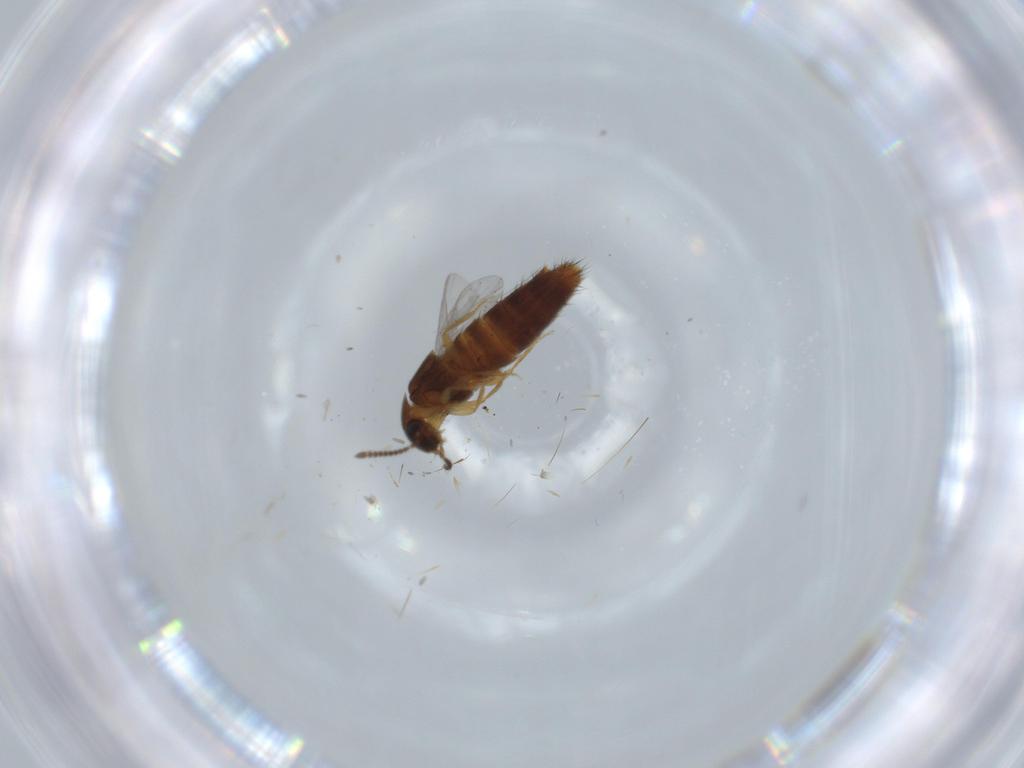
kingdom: Animalia
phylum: Arthropoda
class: Insecta
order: Coleoptera
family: Staphylinidae
